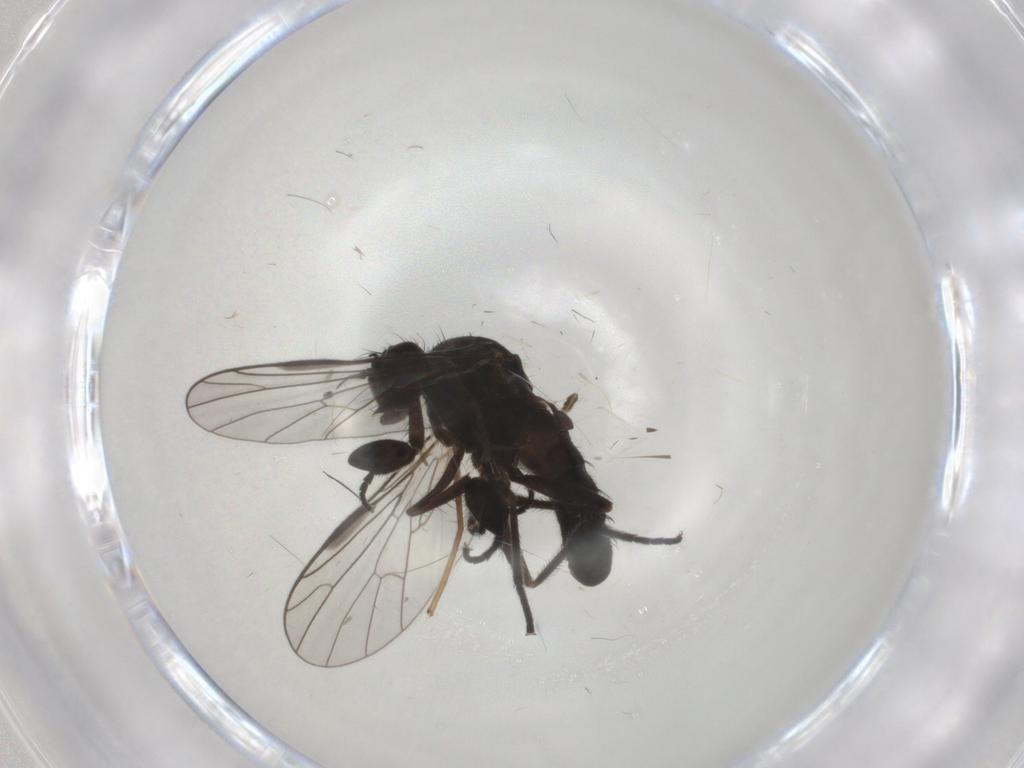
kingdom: Animalia
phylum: Arthropoda
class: Insecta
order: Diptera
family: Empididae
